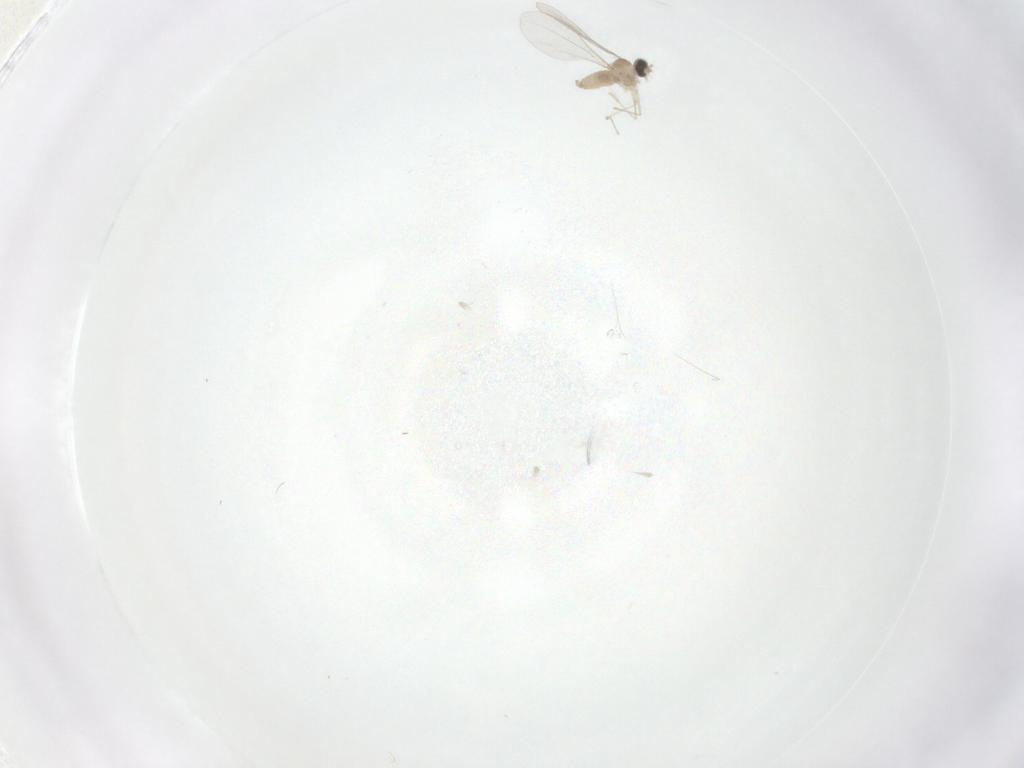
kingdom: Animalia
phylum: Arthropoda
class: Insecta
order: Diptera
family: Cecidomyiidae
